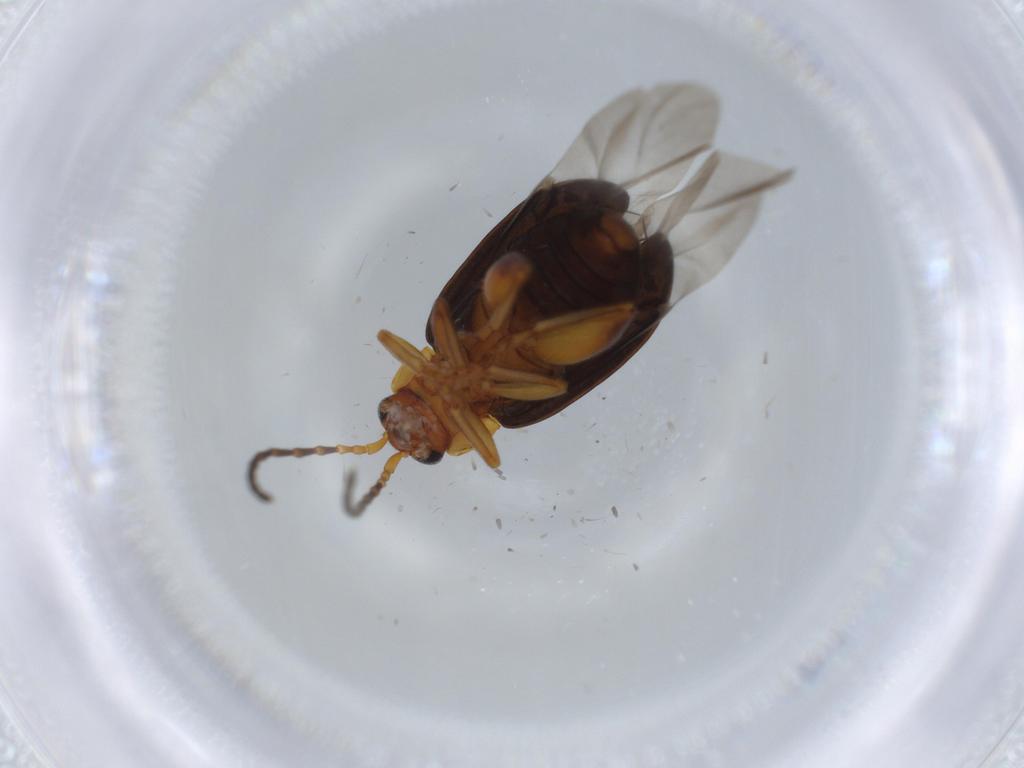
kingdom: Animalia
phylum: Arthropoda
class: Insecta
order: Coleoptera
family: Chrysomelidae
